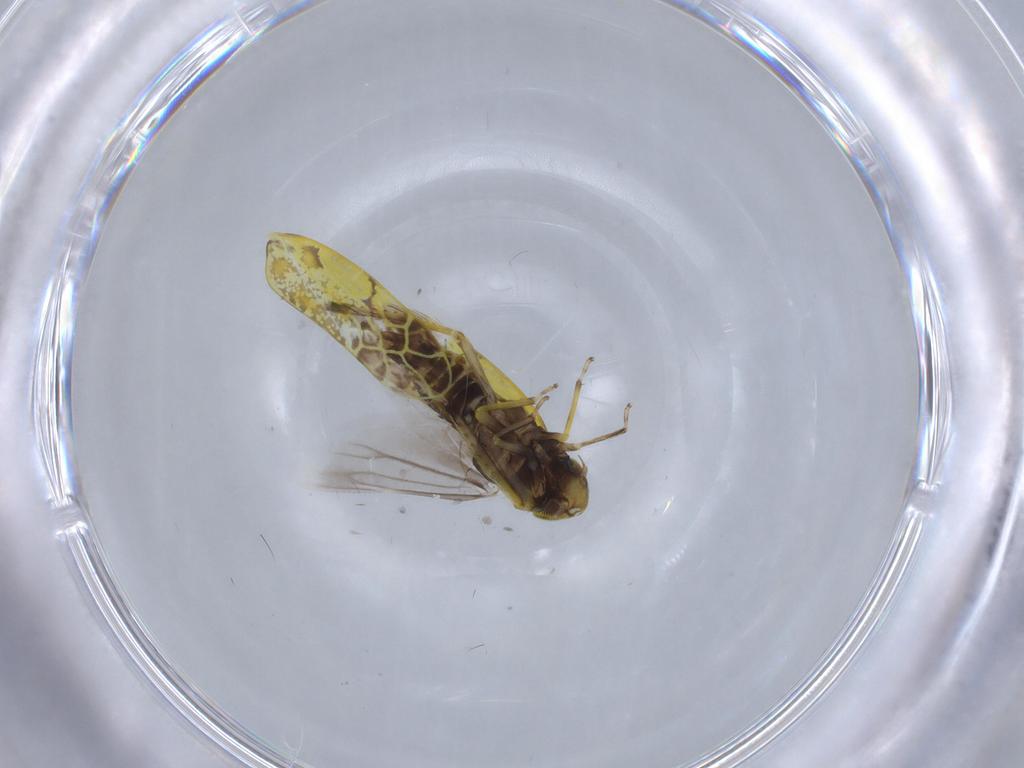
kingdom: Animalia
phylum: Arthropoda
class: Insecta
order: Hemiptera
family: Cicadellidae
